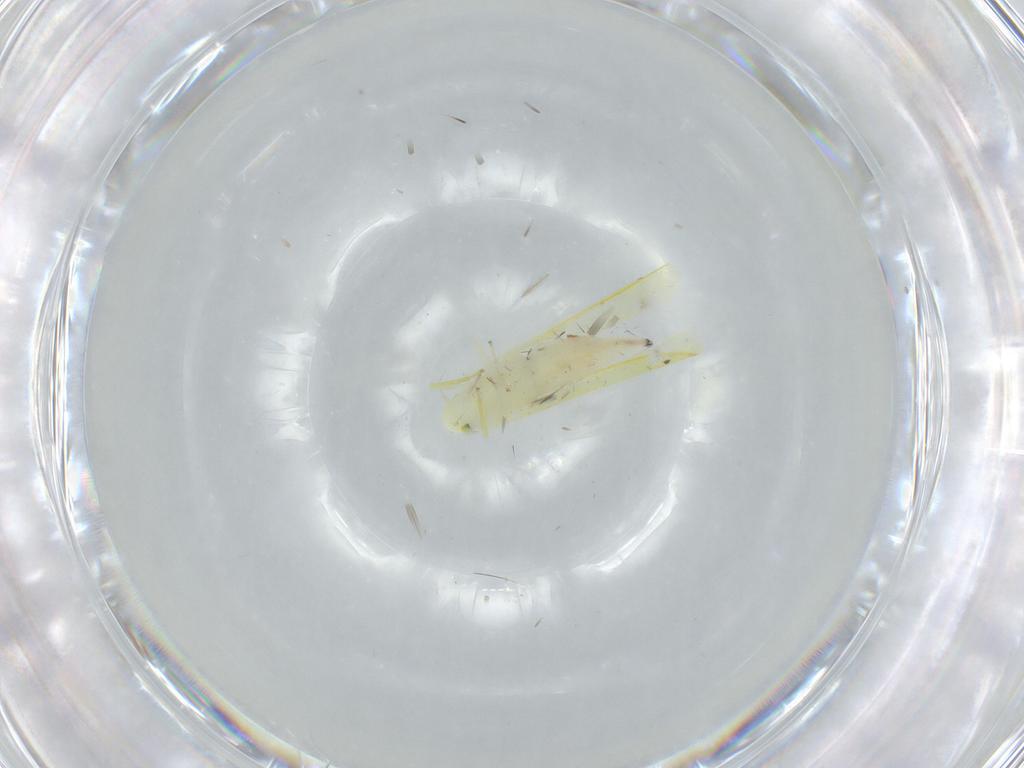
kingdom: Animalia
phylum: Arthropoda
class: Insecta
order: Hemiptera
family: Cicadellidae
